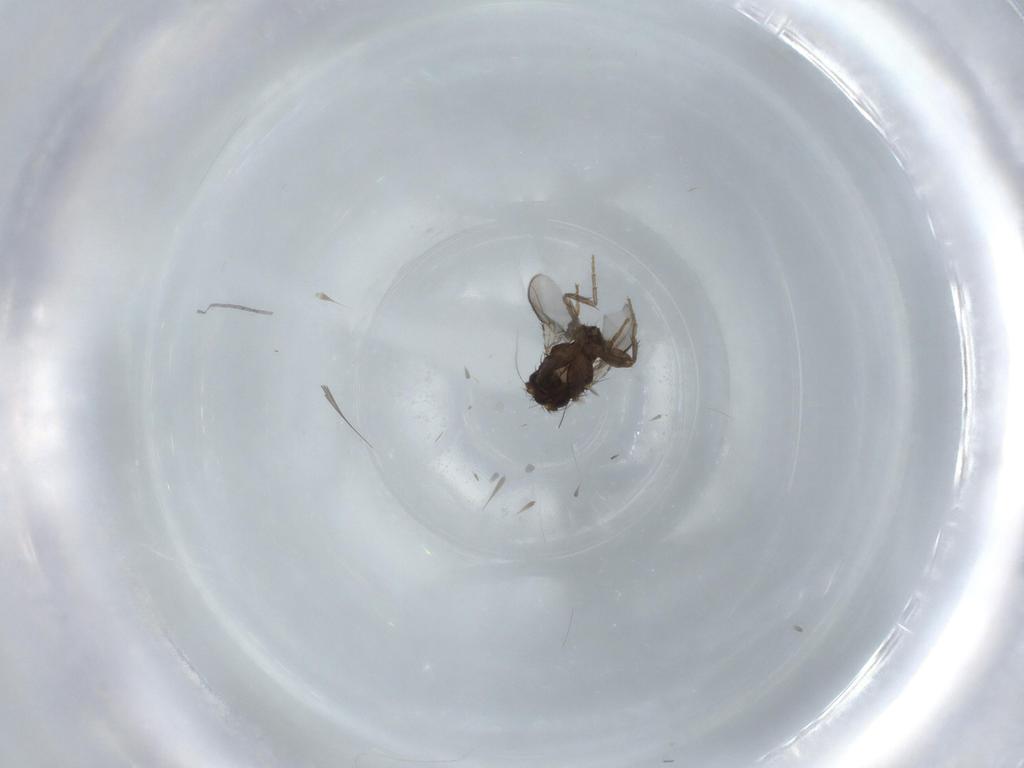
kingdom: Animalia
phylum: Arthropoda
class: Insecta
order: Diptera
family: Sphaeroceridae
